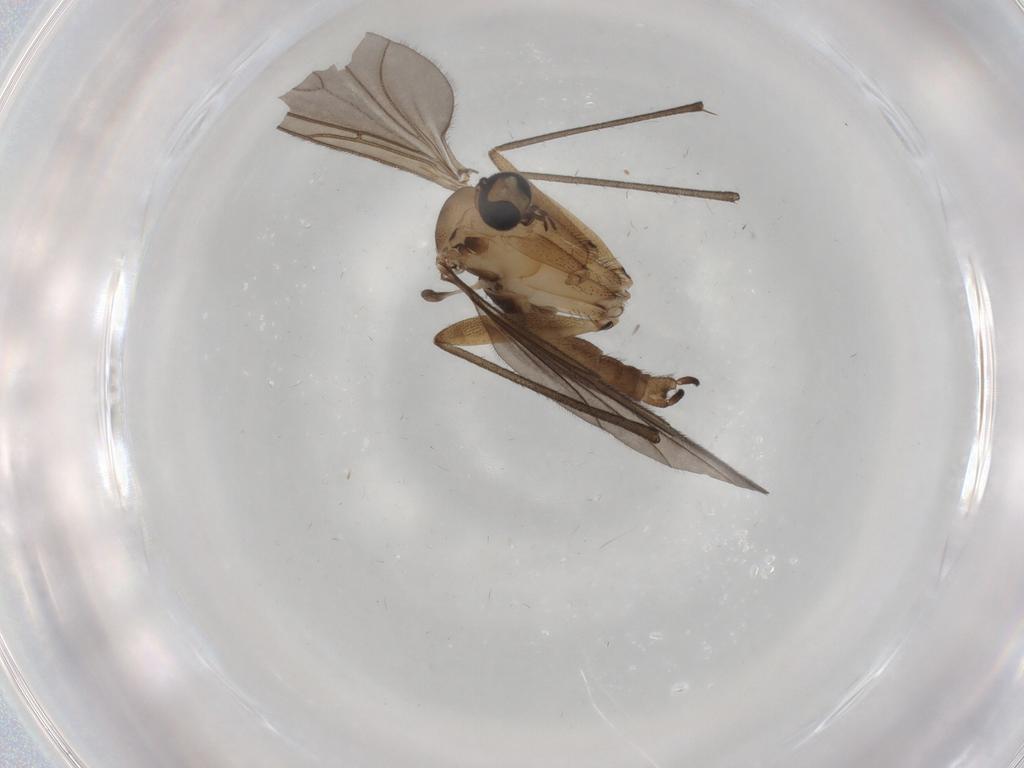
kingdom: Animalia
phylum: Arthropoda
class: Insecta
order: Diptera
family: Sciaridae
